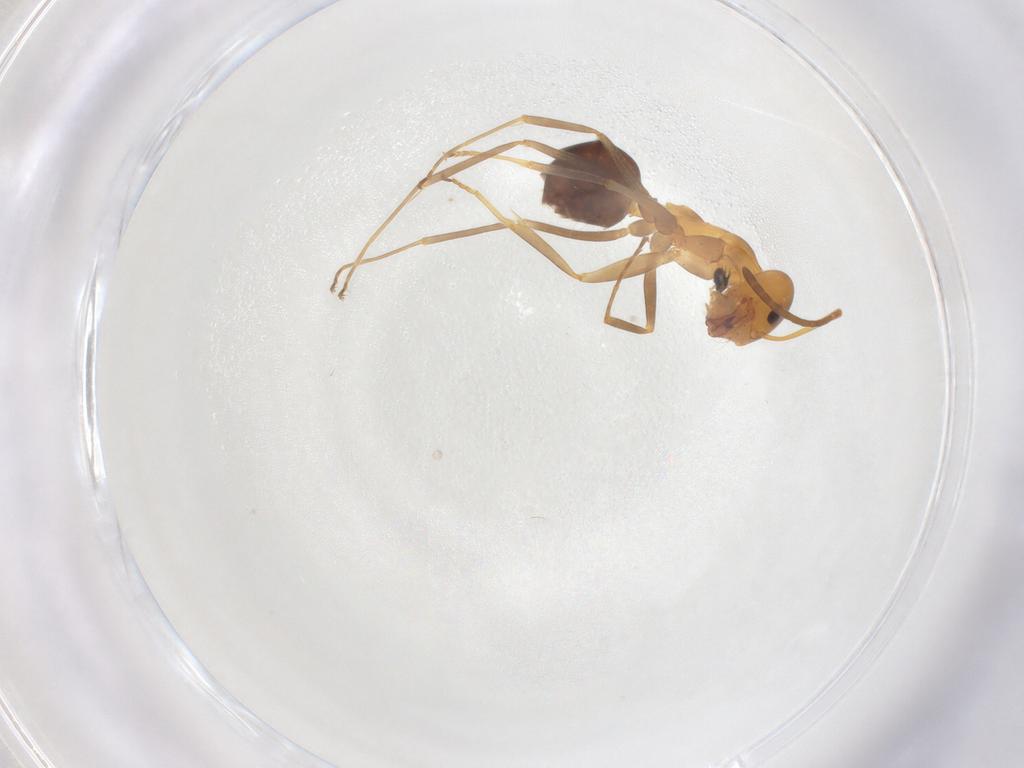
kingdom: Animalia
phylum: Arthropoda
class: Insecta
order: Hymenoptera
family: Formicidae
